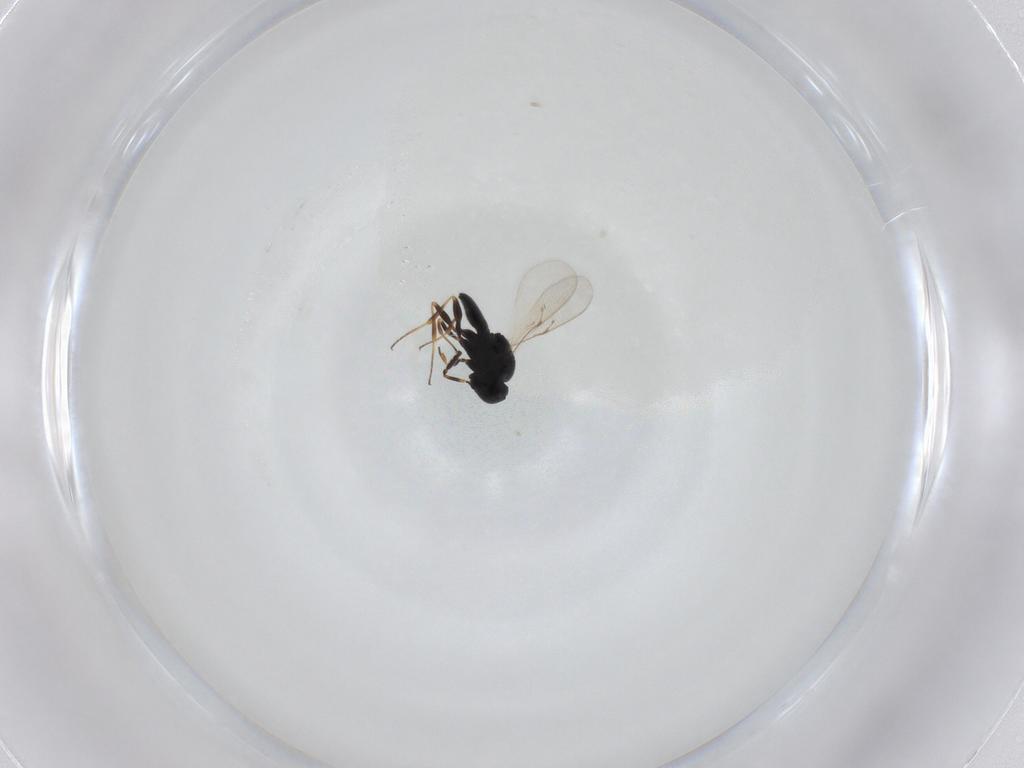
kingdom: Animalia
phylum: Arthropoda
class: Insecta
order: Hymenoptera
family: Scelionidae
